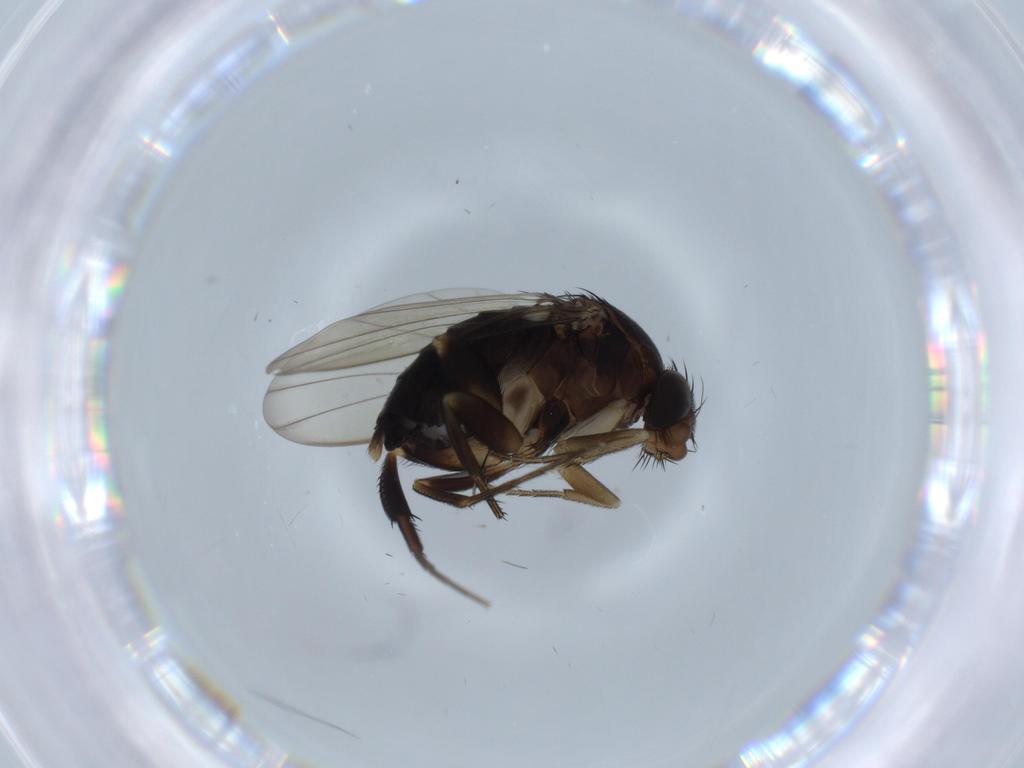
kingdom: Animalia
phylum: Arthropoda
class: Insecta
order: Diptera
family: Phoridae
